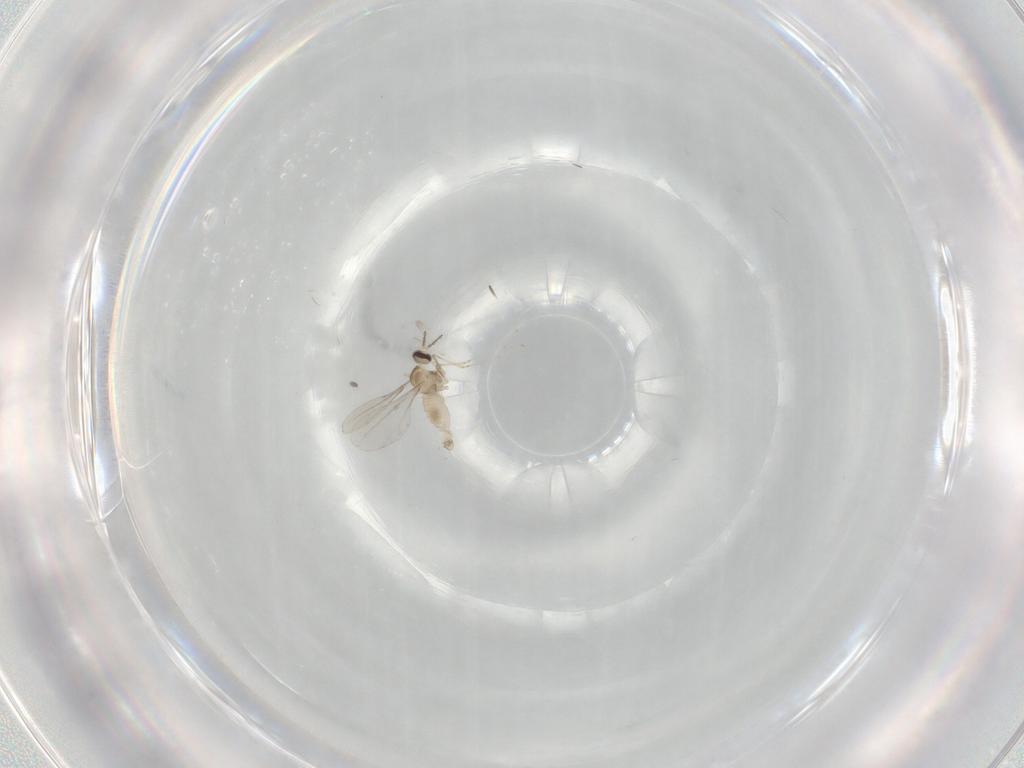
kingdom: Animalia
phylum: Arthropoda
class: Insecta
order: Diptera
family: Cecidomyiidae
